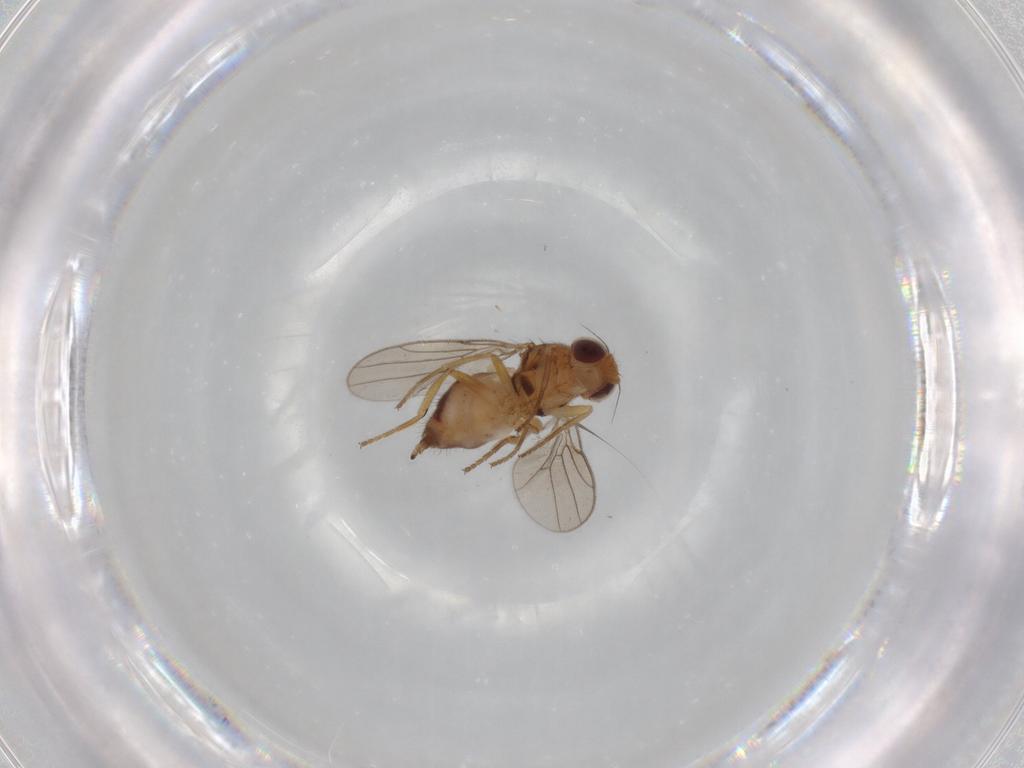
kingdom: Animalia
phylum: Arthropoda
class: Insecta
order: Diptera
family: Chloropidae
